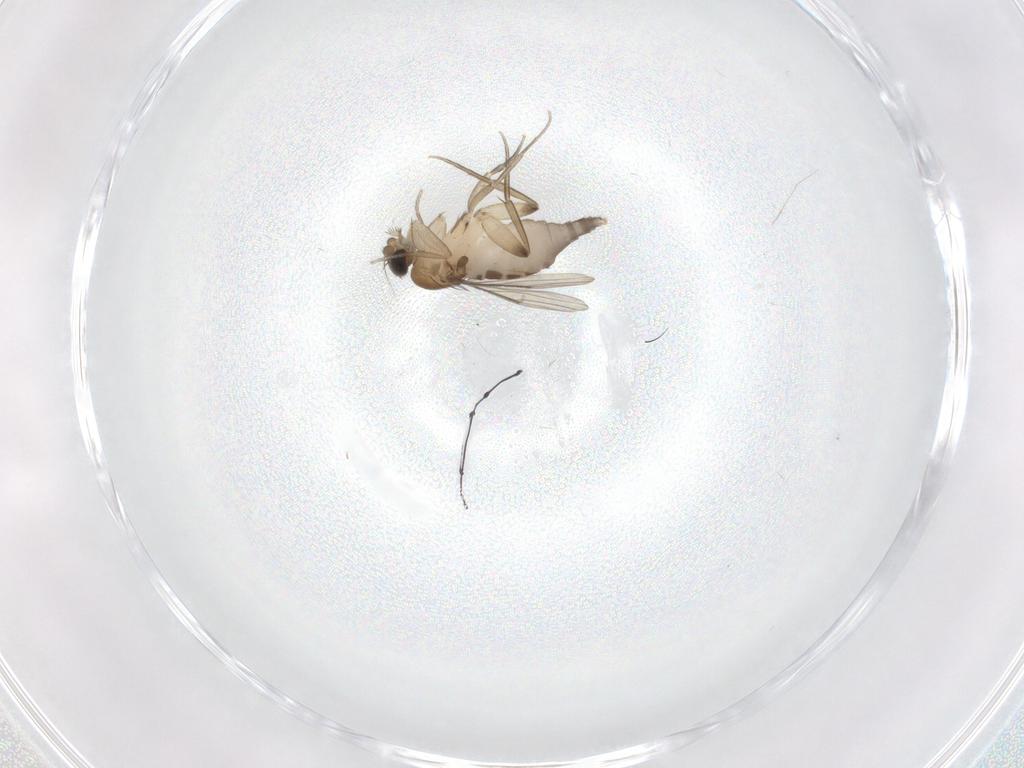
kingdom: Animalia
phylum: Arthropoda
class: Insecta
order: Diptera
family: Phoridae
